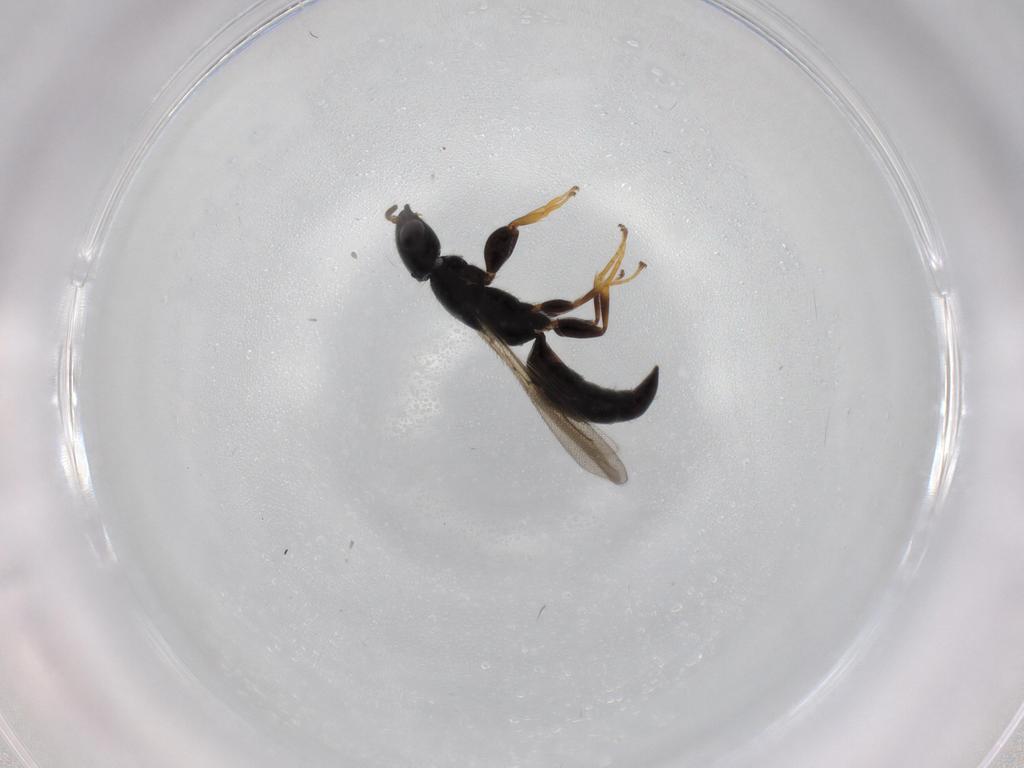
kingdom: Animalia
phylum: Arthropoda
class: Insecta
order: Hymenoptera
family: Bethylidae
